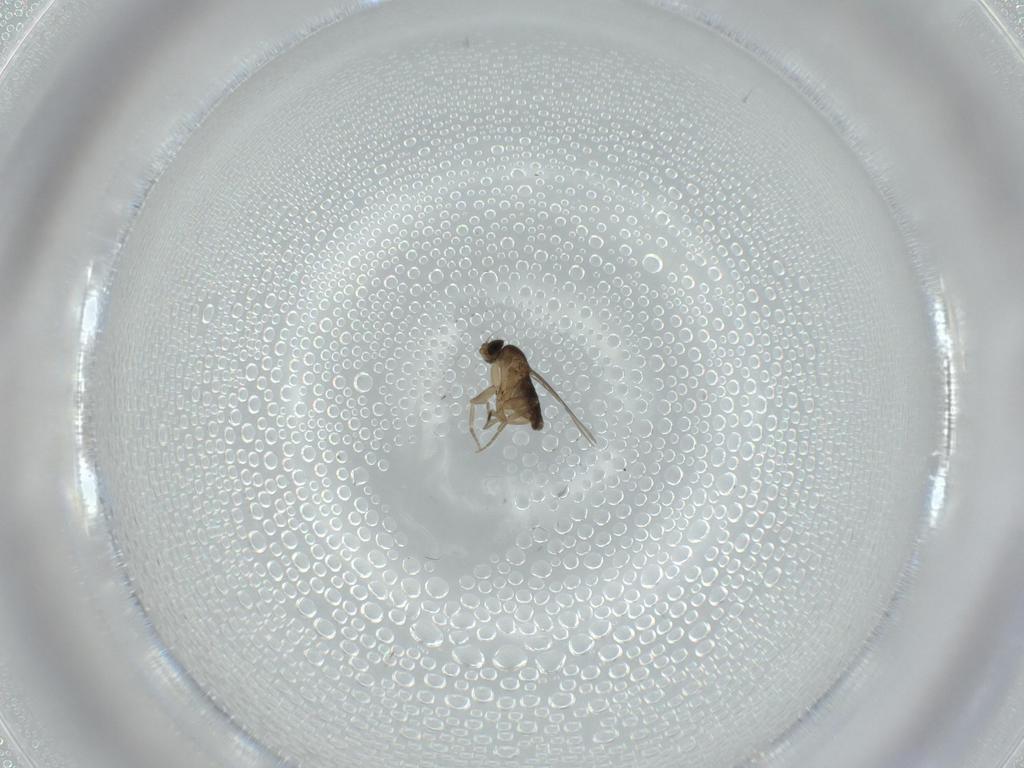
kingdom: Animalia
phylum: Arthropoda
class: Insecta
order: Diptera
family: Phoridae
